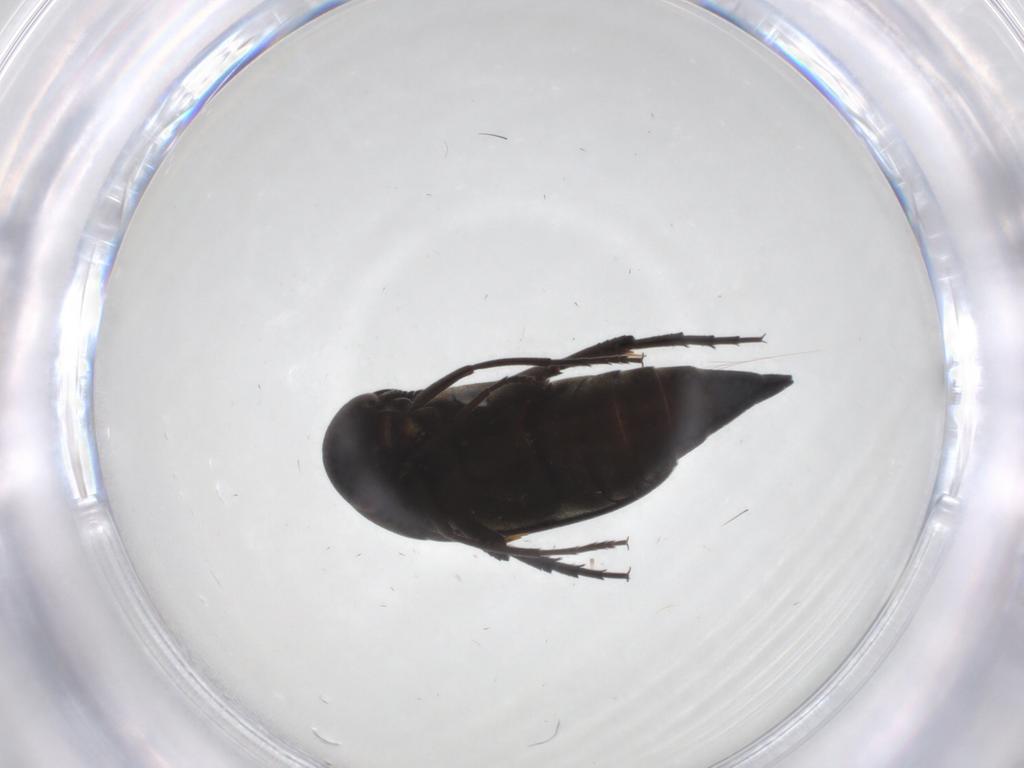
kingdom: Animalia
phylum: Arthropoda
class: Insecta
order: Coleoptera
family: Mordellidae
